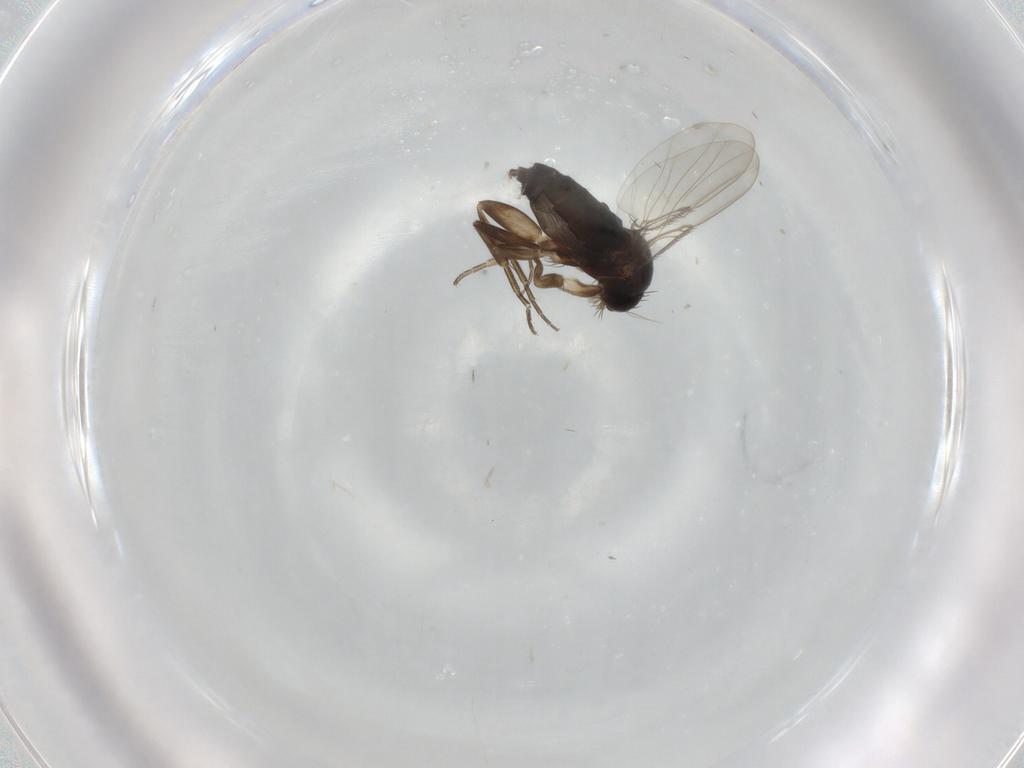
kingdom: Animalia
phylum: Arthropoda
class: Insecta
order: Diptera
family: Phoridae
